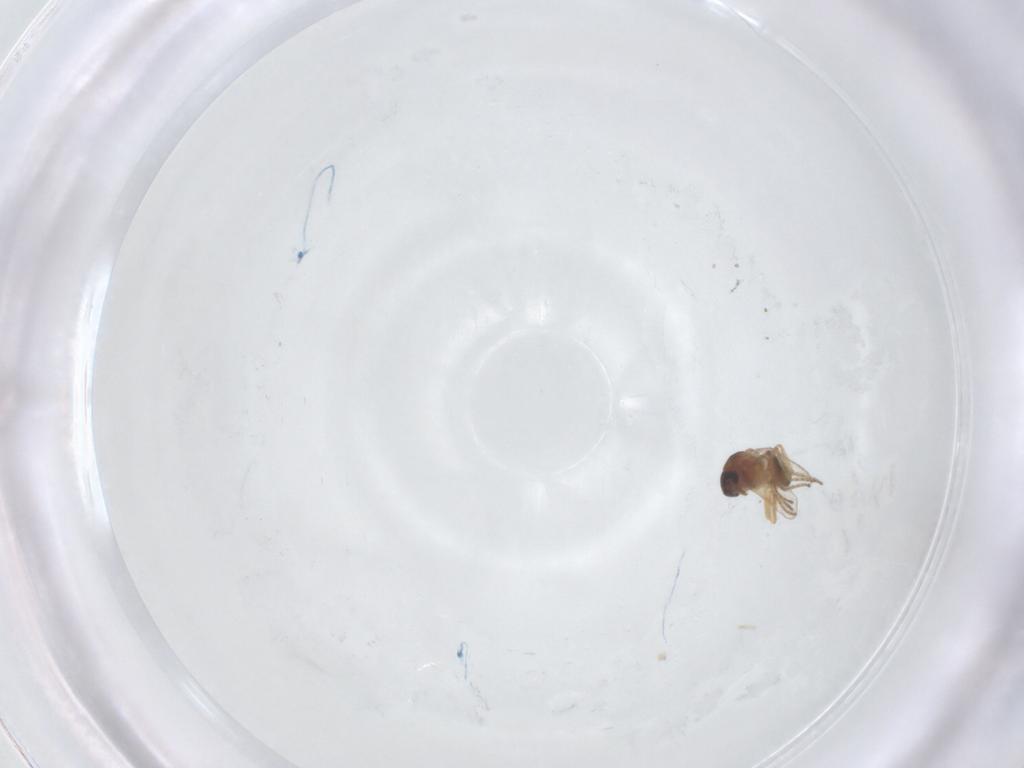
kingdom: Animalia
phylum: Arthropoda
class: Insecta
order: Diptera
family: Ceratopogonidae
